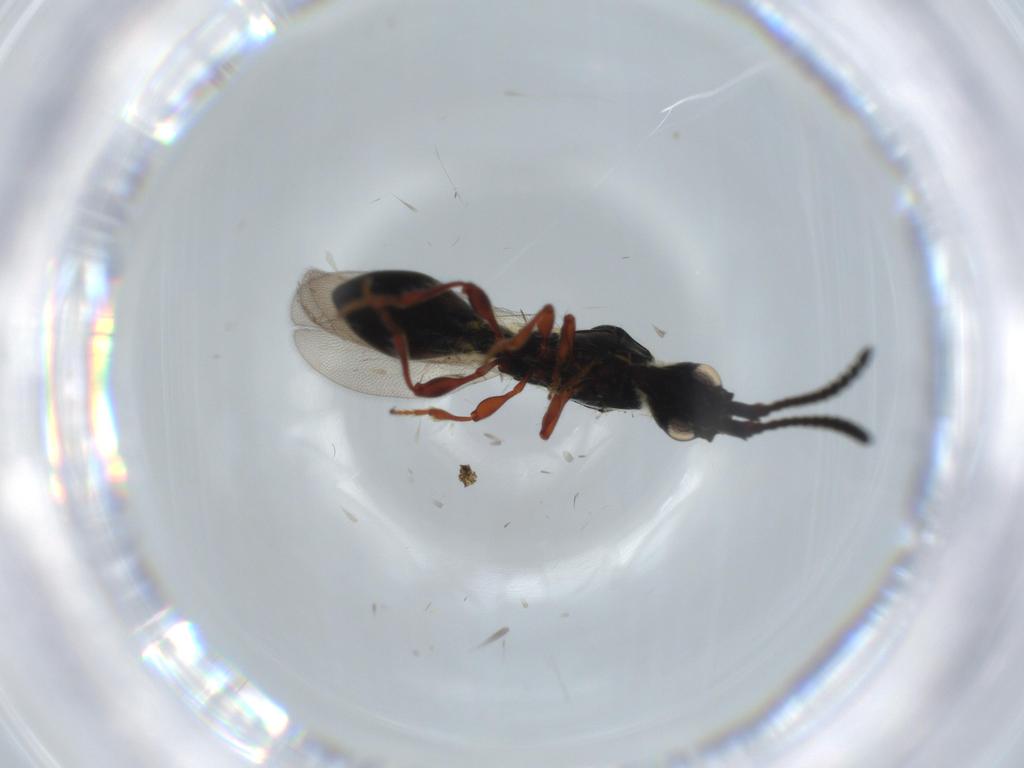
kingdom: Animalia
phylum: Arthropoda
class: Insecta
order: Hymenoptera
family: Diapriidae
